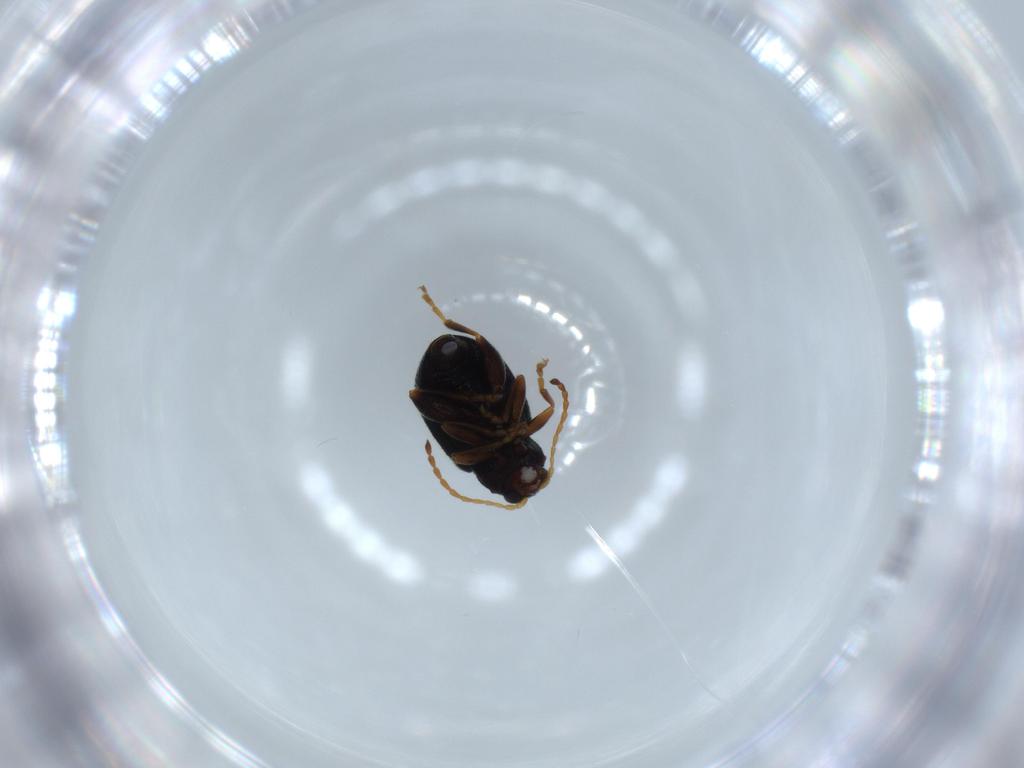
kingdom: Animalia
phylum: Arthropoda
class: Insecta
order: Coleoptera
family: Chrysomelidae
